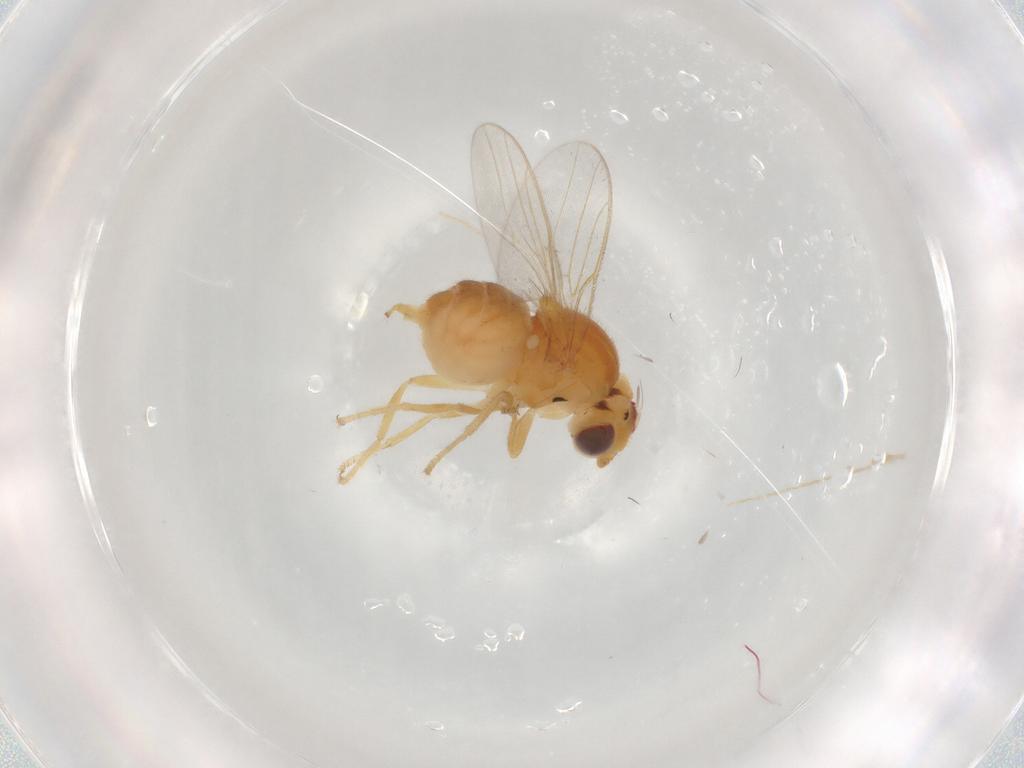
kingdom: Animalia
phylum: Arthropoda
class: Insecta
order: Diptera
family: Chloropidae
